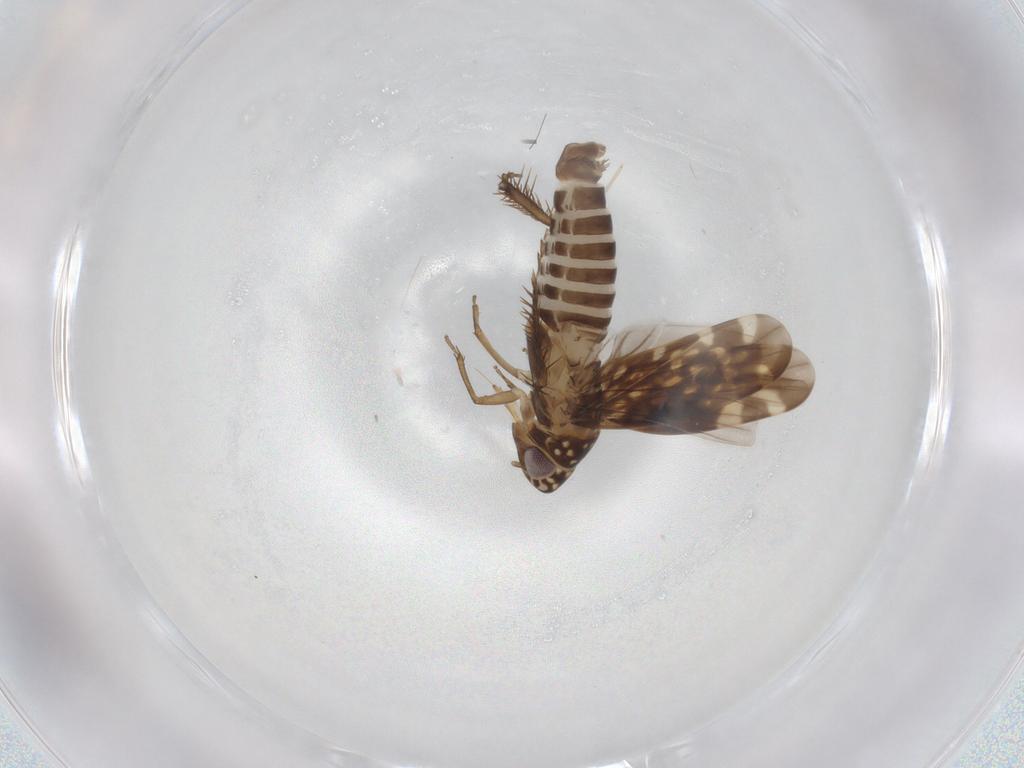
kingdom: Animalia
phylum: Arthropoda
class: Insecta
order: Hemiptera
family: Cicadellidae
